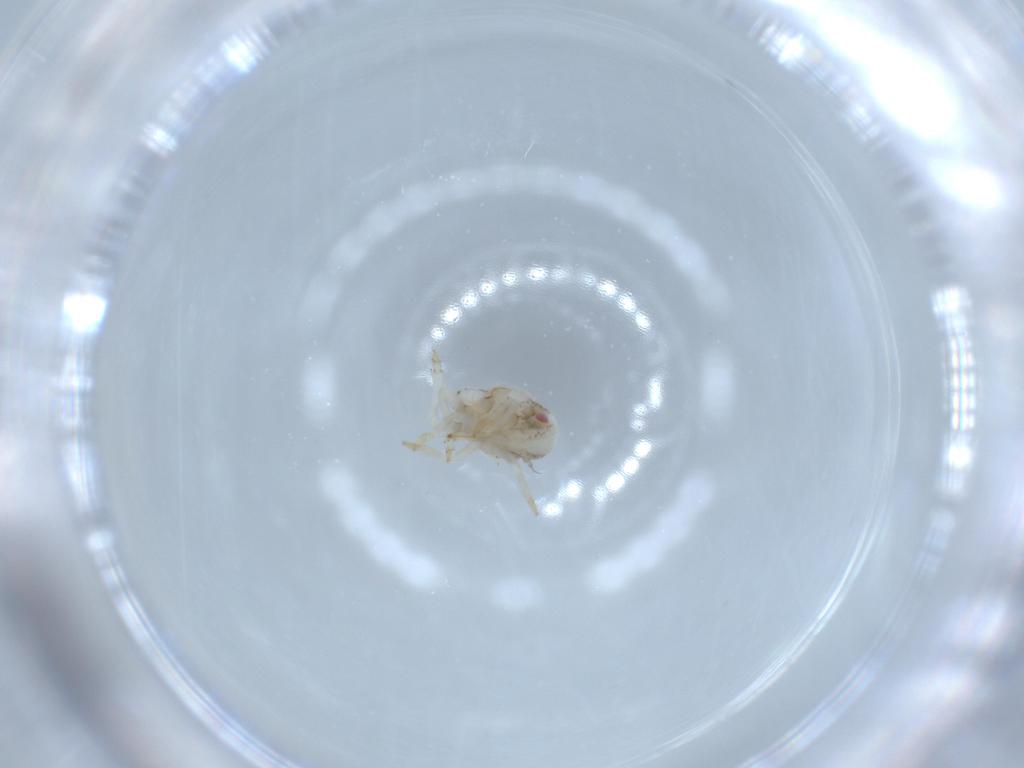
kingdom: Animalia
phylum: Arthropoda
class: Insecta
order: Hemiptera
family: Acanaloniidae
